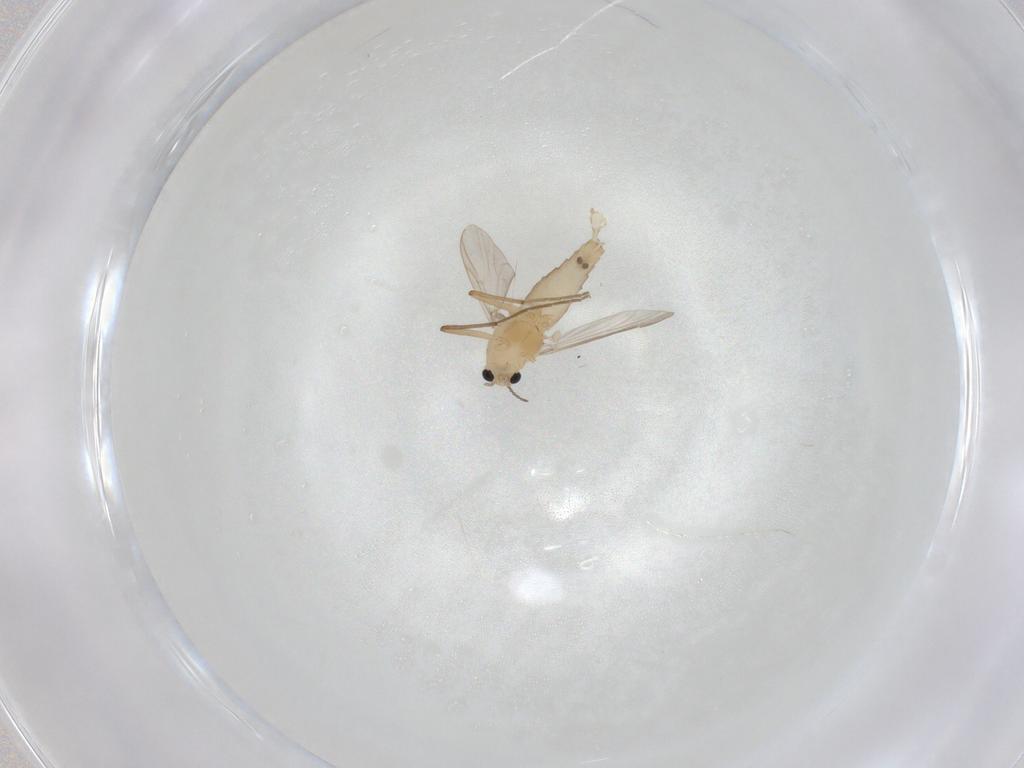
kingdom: Animalia
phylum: Arthropoda
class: Insecta
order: Diptera
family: Chironomidae
